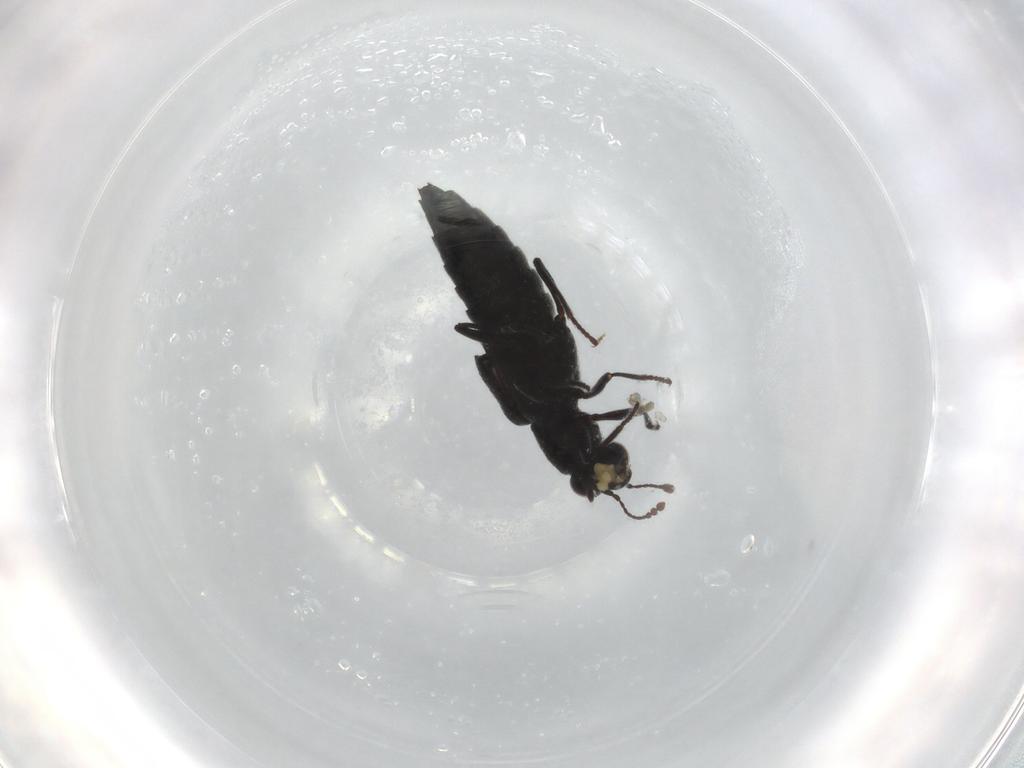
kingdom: Animalia
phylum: Arthropoda
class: Insecta
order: Coleoptera
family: Staphylinidae
